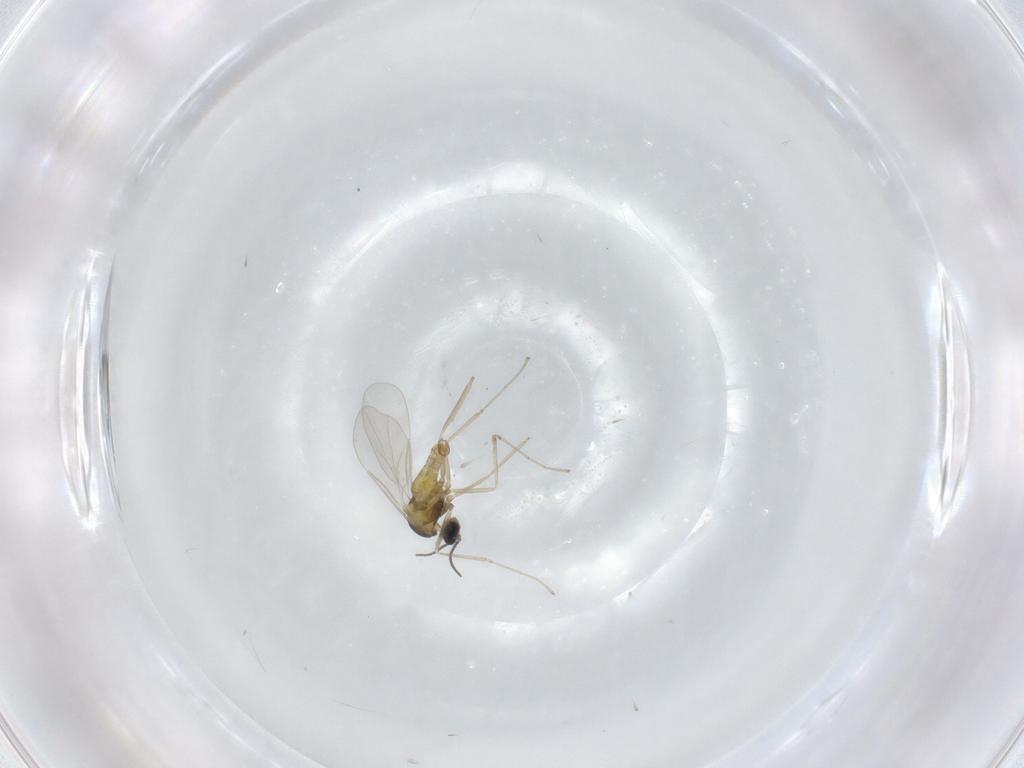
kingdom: Animalia
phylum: Arthropoda
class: Insecta
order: Diptera
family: Cecidomyiidae
